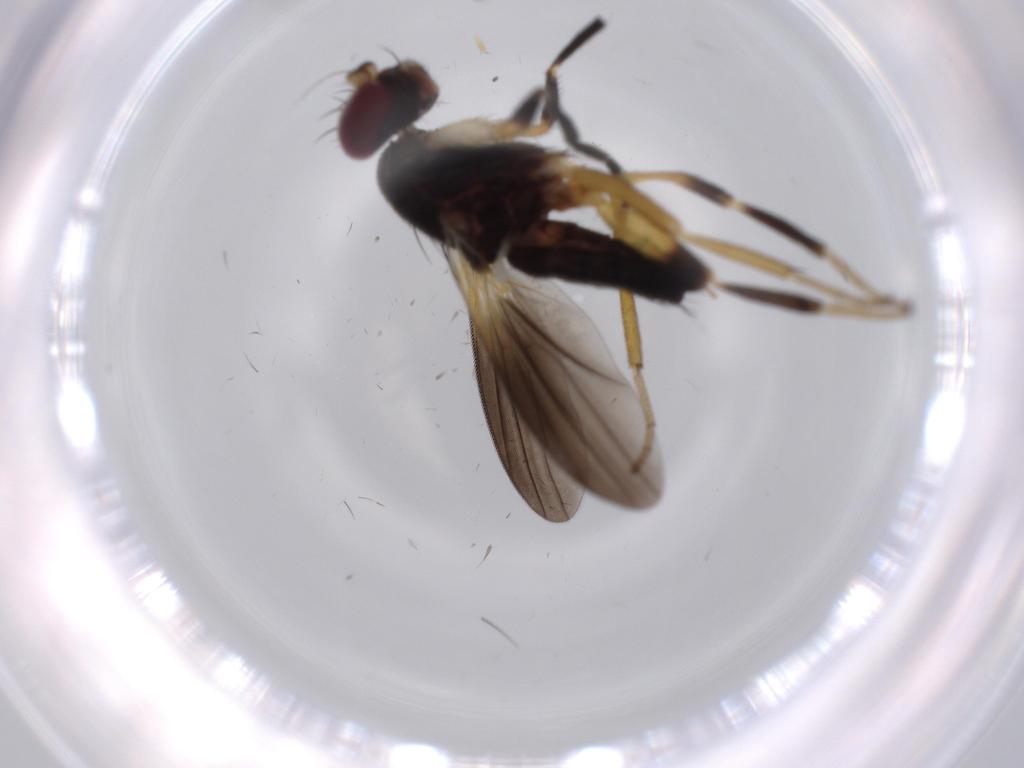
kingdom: Animalia
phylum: Arthropoda
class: Insecta
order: Diptera
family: Milichiidae
